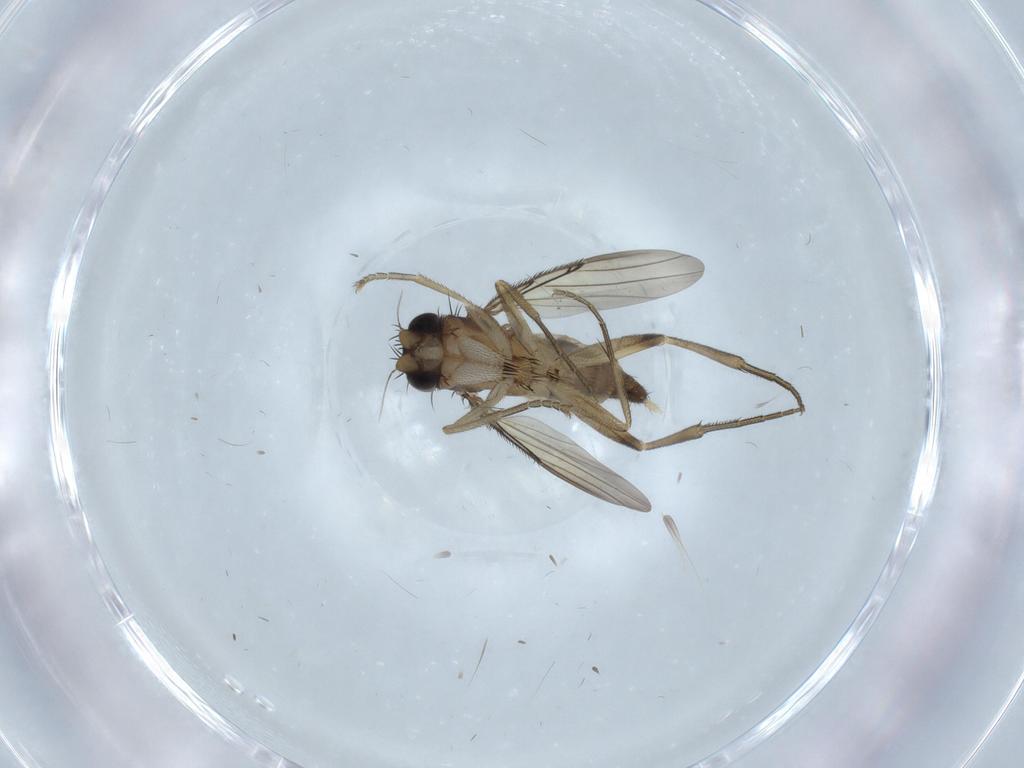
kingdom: Animalia
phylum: Arthropoda
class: Insecta
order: Diptera
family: Phoridae
